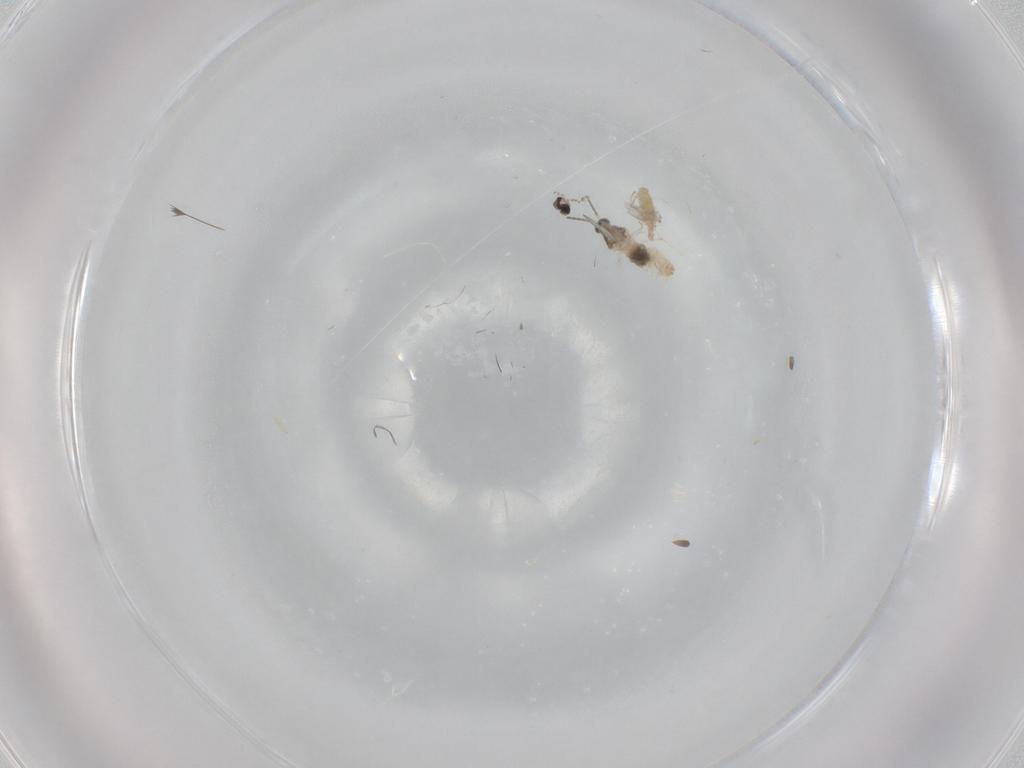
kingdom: Animalia
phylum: Arthropoda
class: Insecta
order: Diptera
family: Cecidomyiidae
